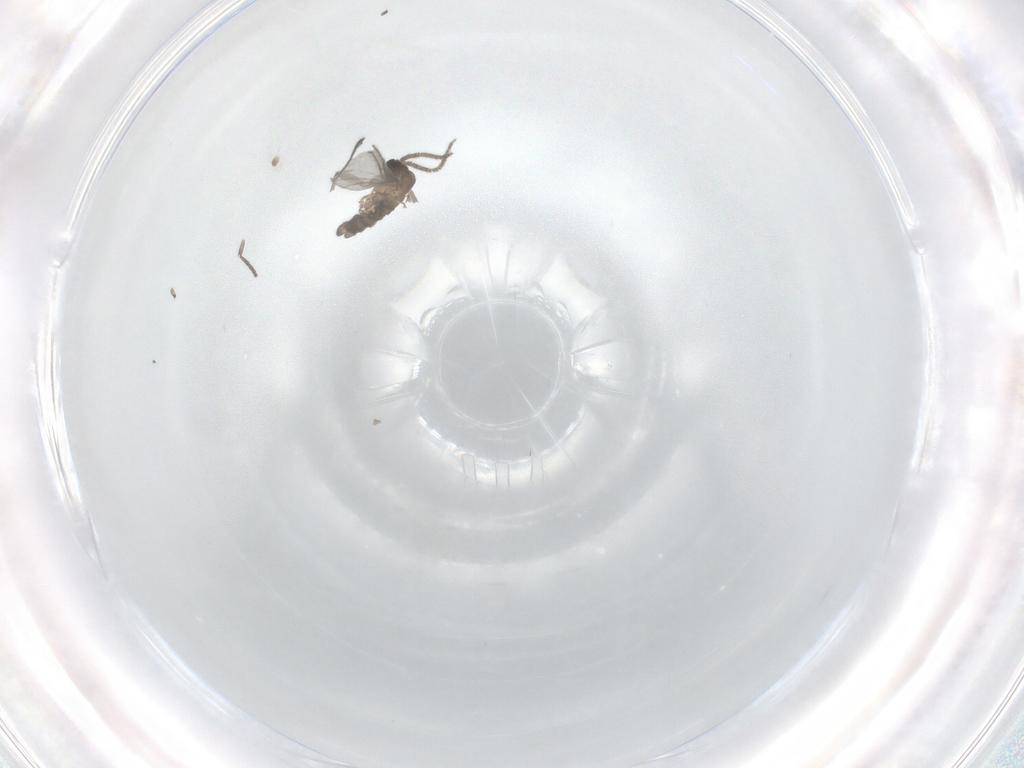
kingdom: Animalia
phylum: Arthropoda
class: Insecta
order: Diptera
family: Sciaridae
